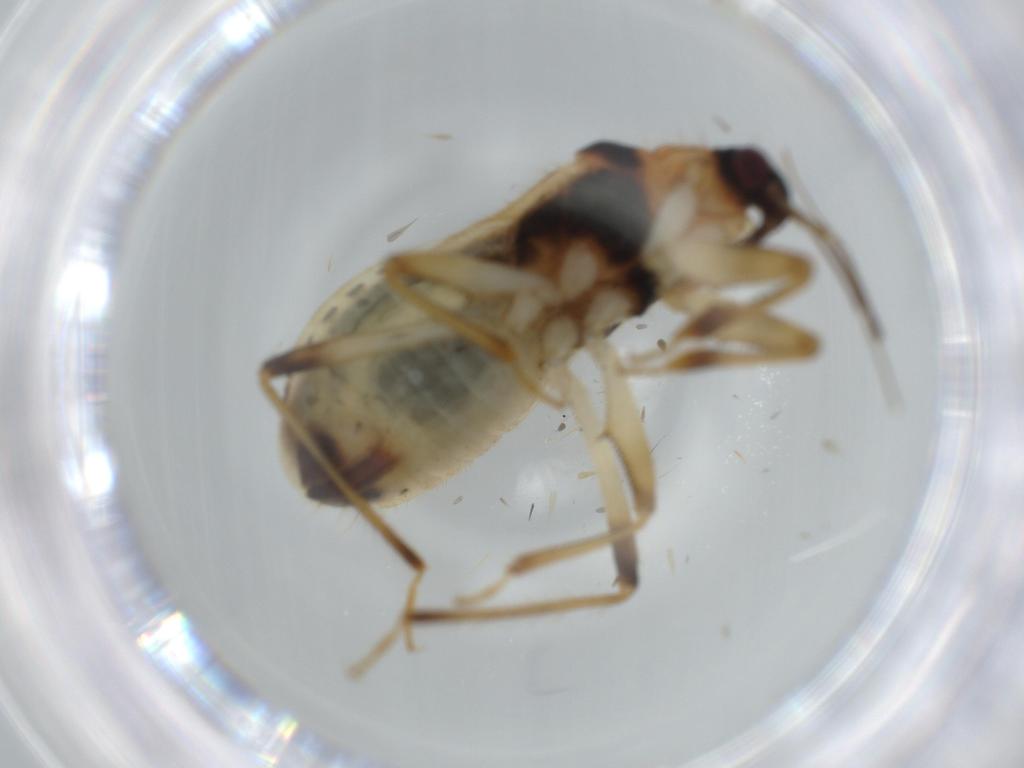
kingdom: Animalia
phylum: Arthropoda
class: Insecta
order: Hemiptera
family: Nabidae
